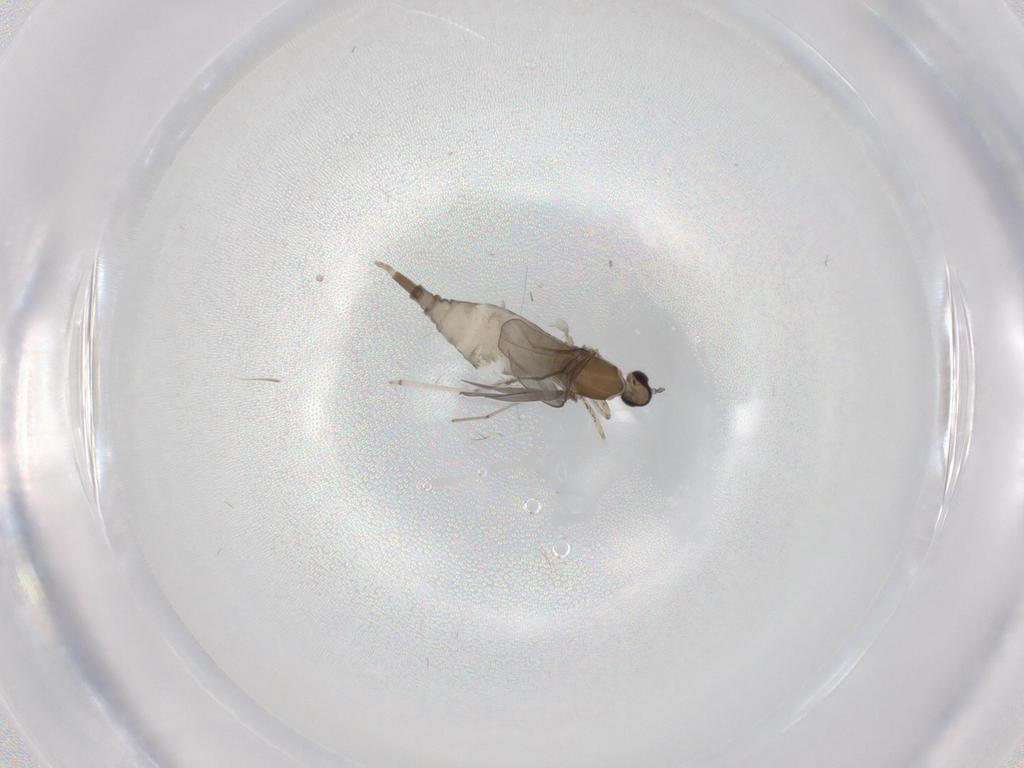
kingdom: Animalia
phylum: Arthropoda
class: Insecta
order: Diptera
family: Cecidomyiidae
